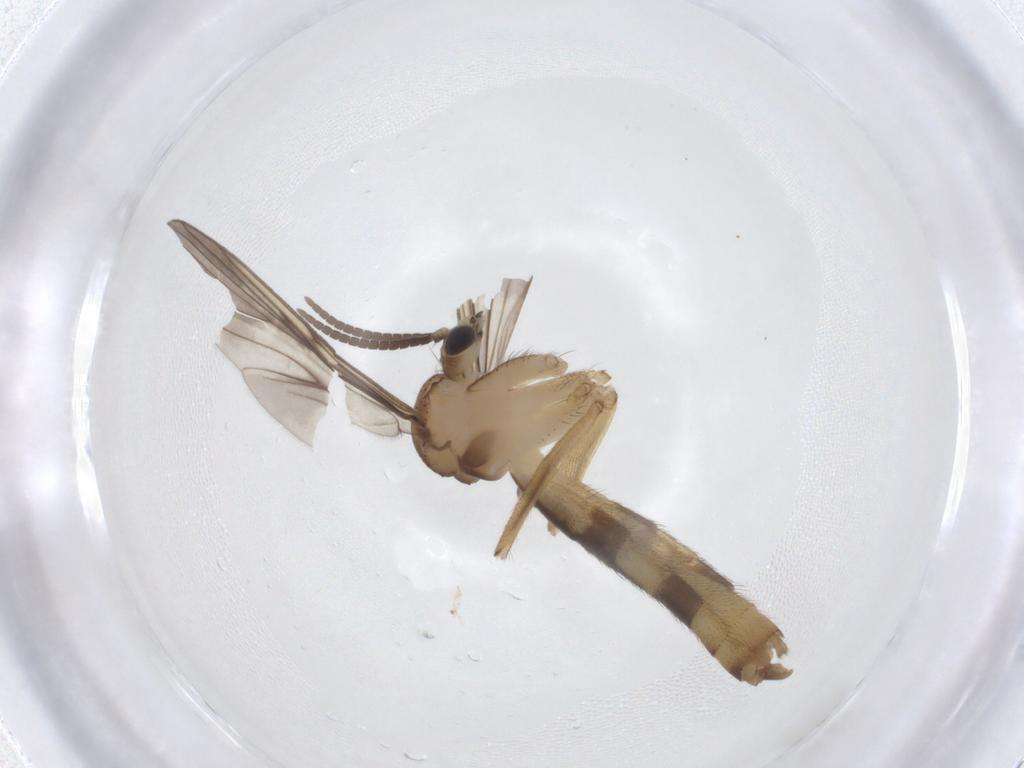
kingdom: Animalia
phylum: Arthropoda
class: Insecta
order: Diptera
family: Mycetophilidae
